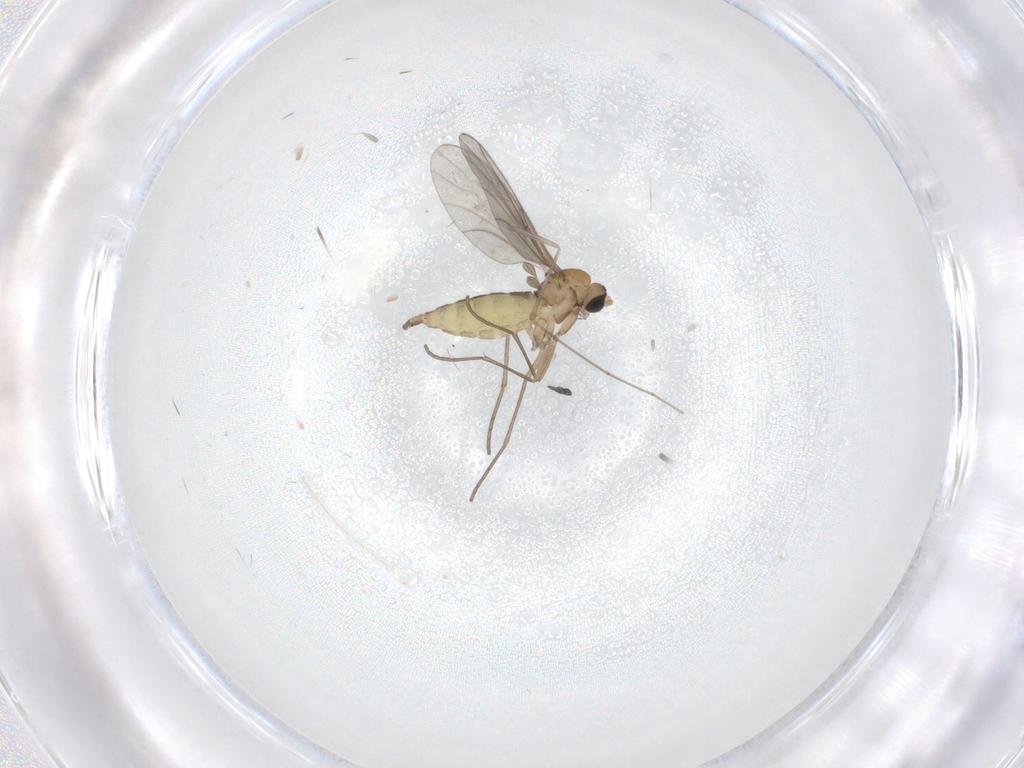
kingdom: Animalia
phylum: Arthropoda
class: Insecta
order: Diptera
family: Sciaridae
